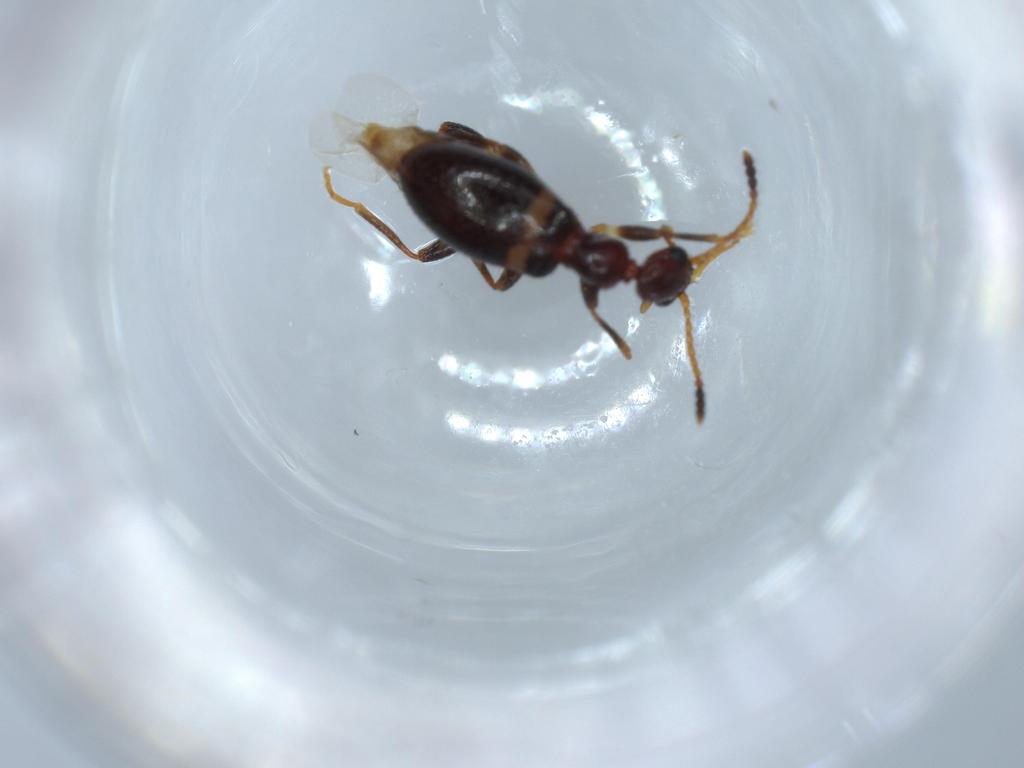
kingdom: Animalia
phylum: Arthropoda
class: Insecta
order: Coleoptera
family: Anthicidae
